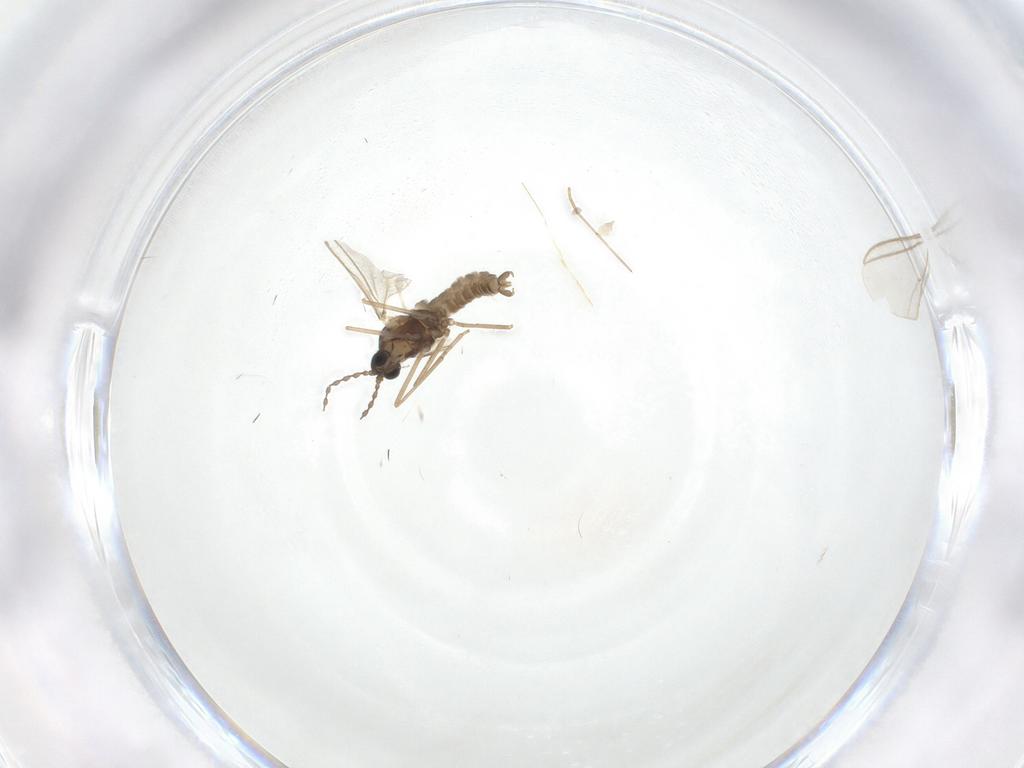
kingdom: Animalia
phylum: Arthropoda
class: Insecta
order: Diptera
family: Cecidomyiidae
